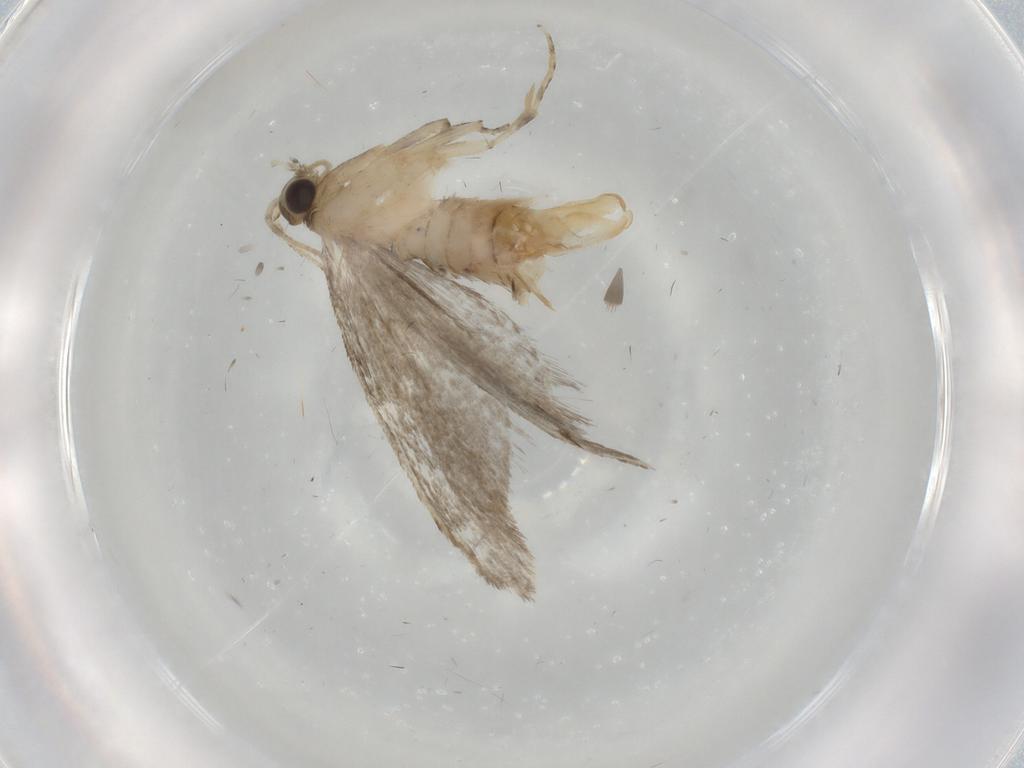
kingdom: Animalia
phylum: Arthropoda
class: Insecta
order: Lepidoptera
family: Tineidae
